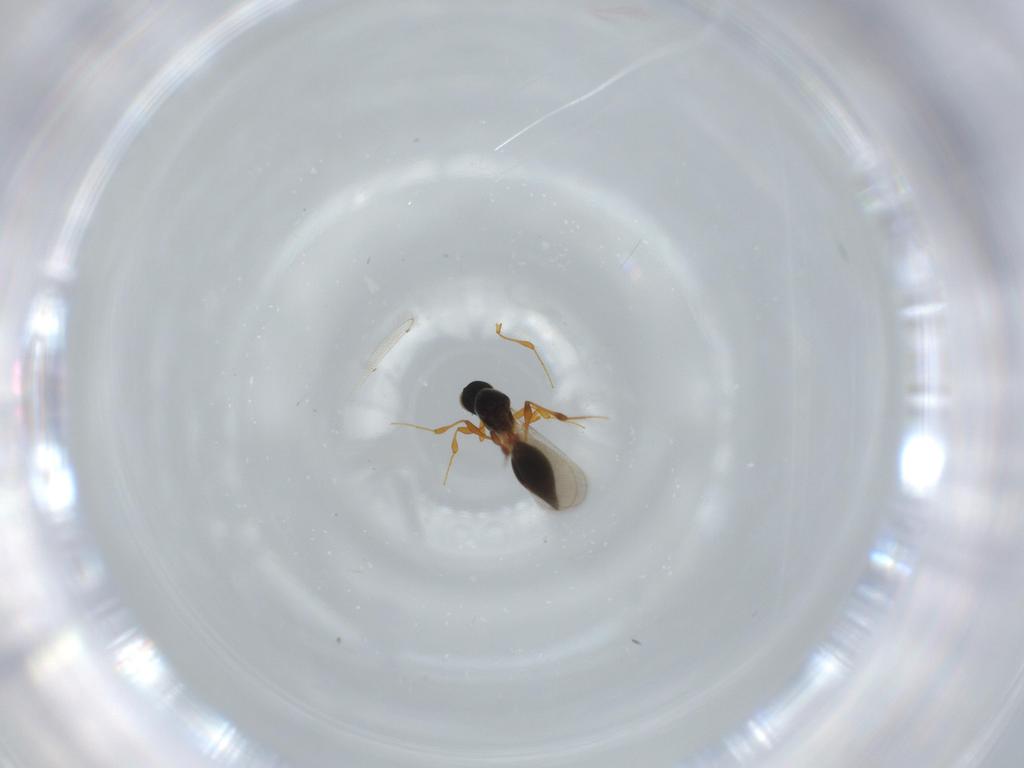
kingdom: Animalia
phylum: Arthropoda
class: Insecta
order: Hymenoptera
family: Platygastridae
